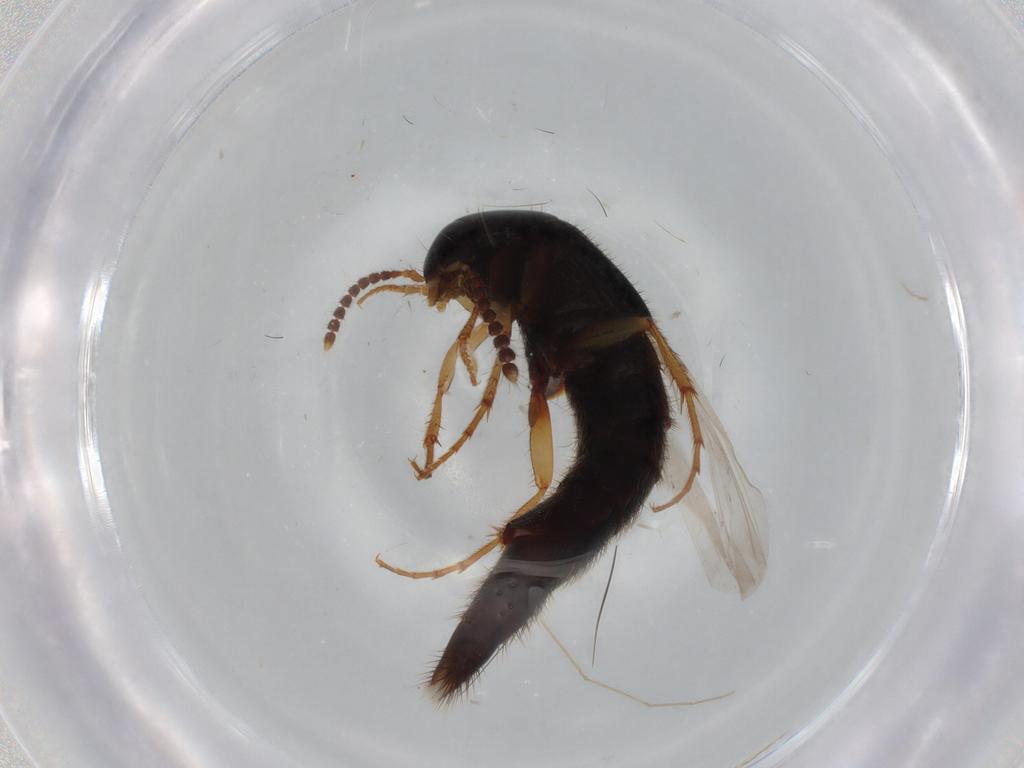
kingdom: Animalia
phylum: Arthropoda
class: Insecta
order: Coleoptera
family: Staphylinidae
